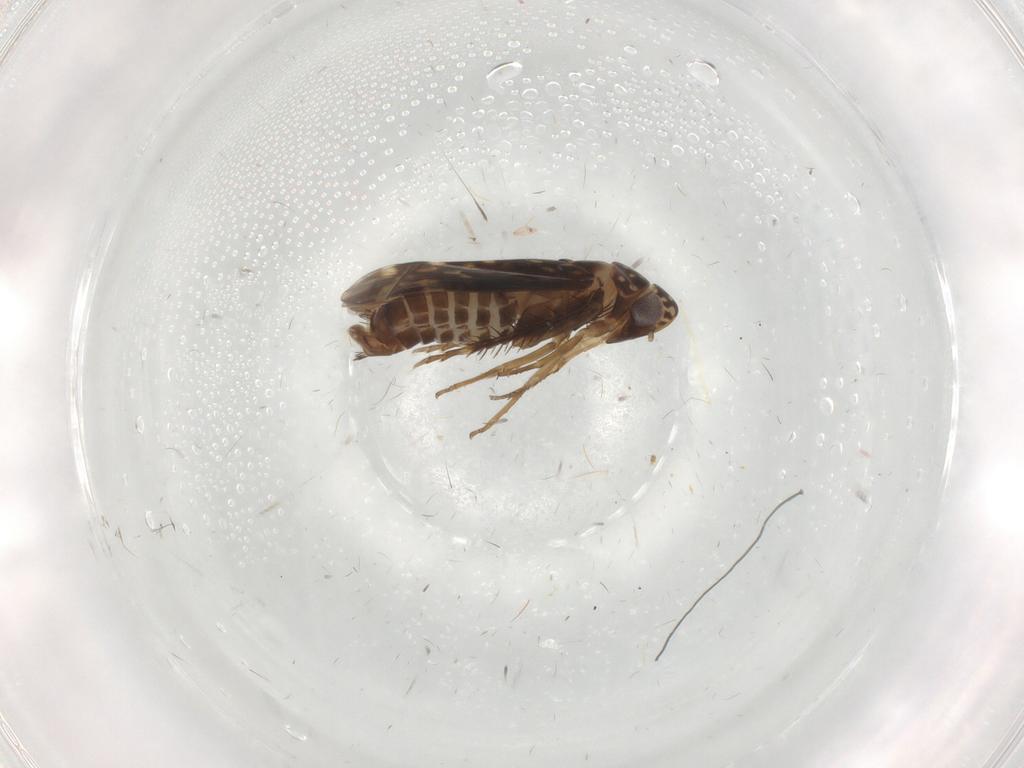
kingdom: Animalia
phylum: Arthropoda
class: Insecta
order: Hemiptera
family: Cicadellidae
